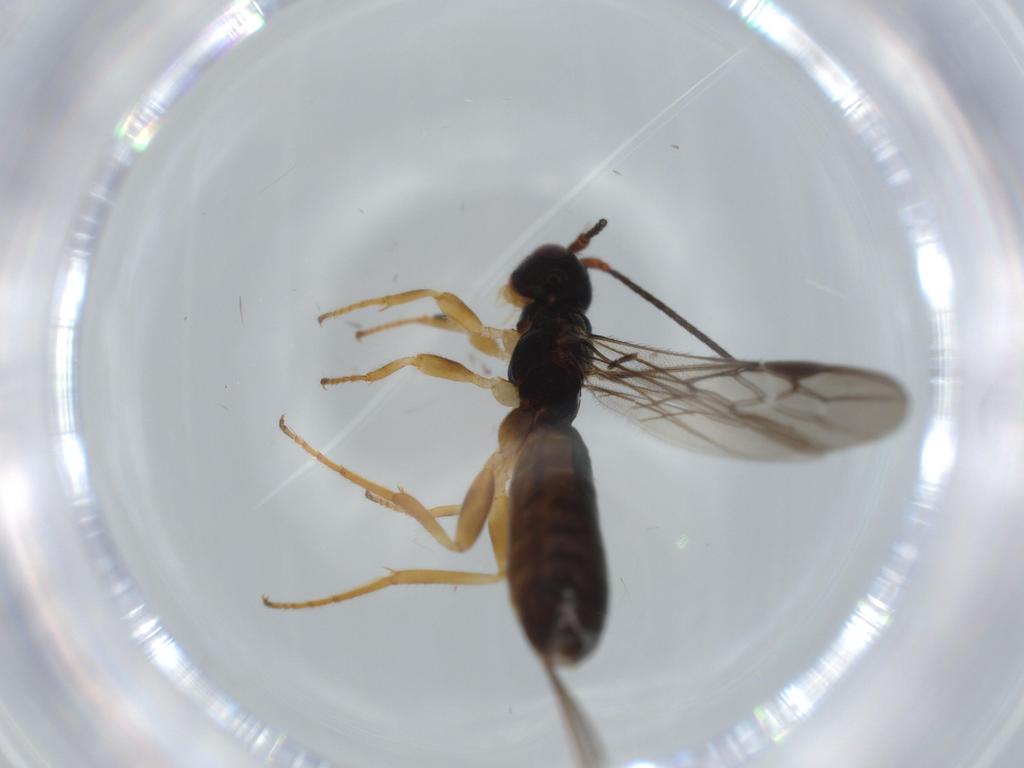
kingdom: Animalia
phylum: Arthropoda
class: Insecta
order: Hymenoptera
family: Braconidae
